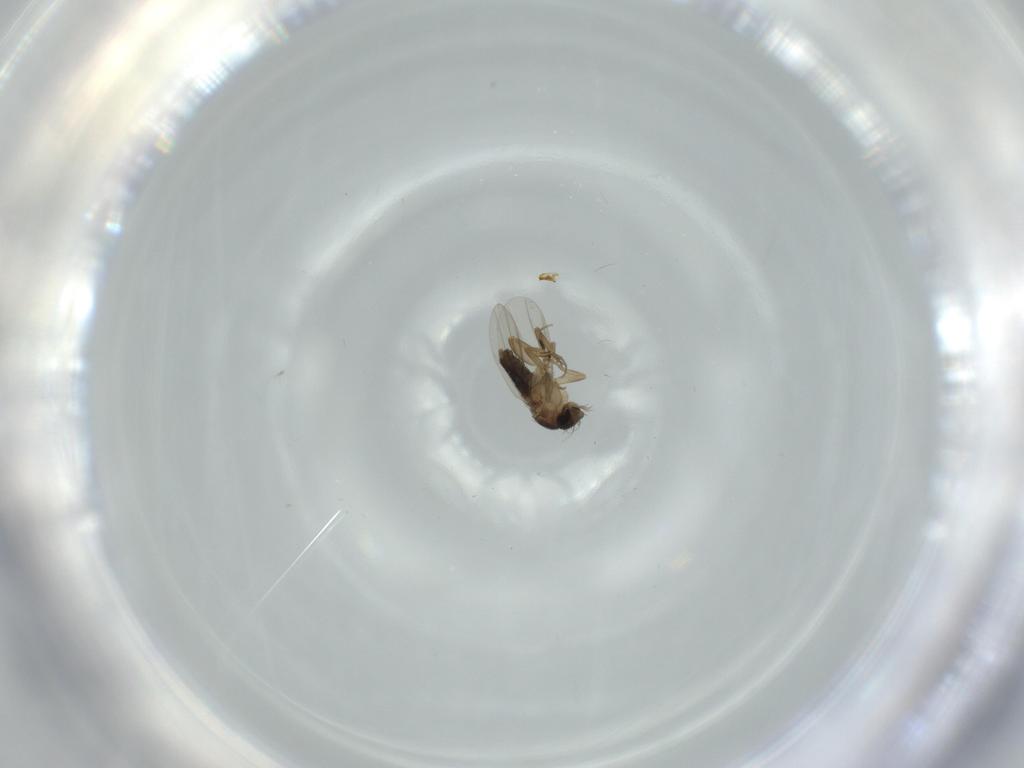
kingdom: Animalia
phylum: Arthropoda
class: Insecta
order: Diptera
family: Phoridae
